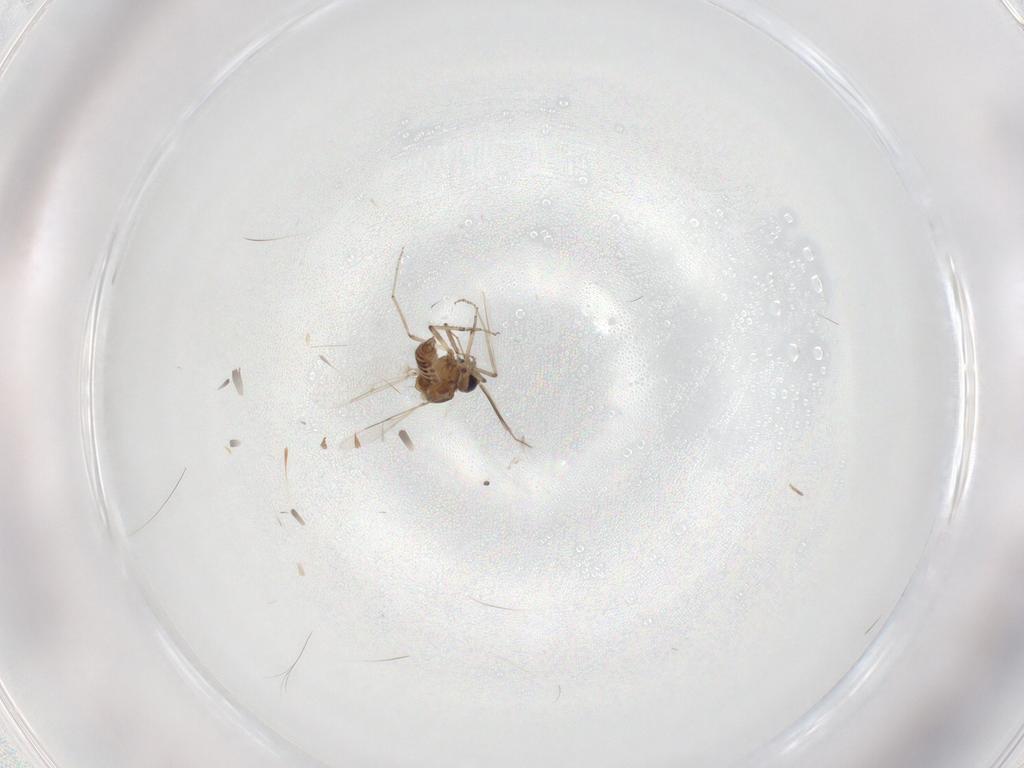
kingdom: Animalia
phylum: Arthropoda
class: Insecta
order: Diptera
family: Ceratopogonidae
